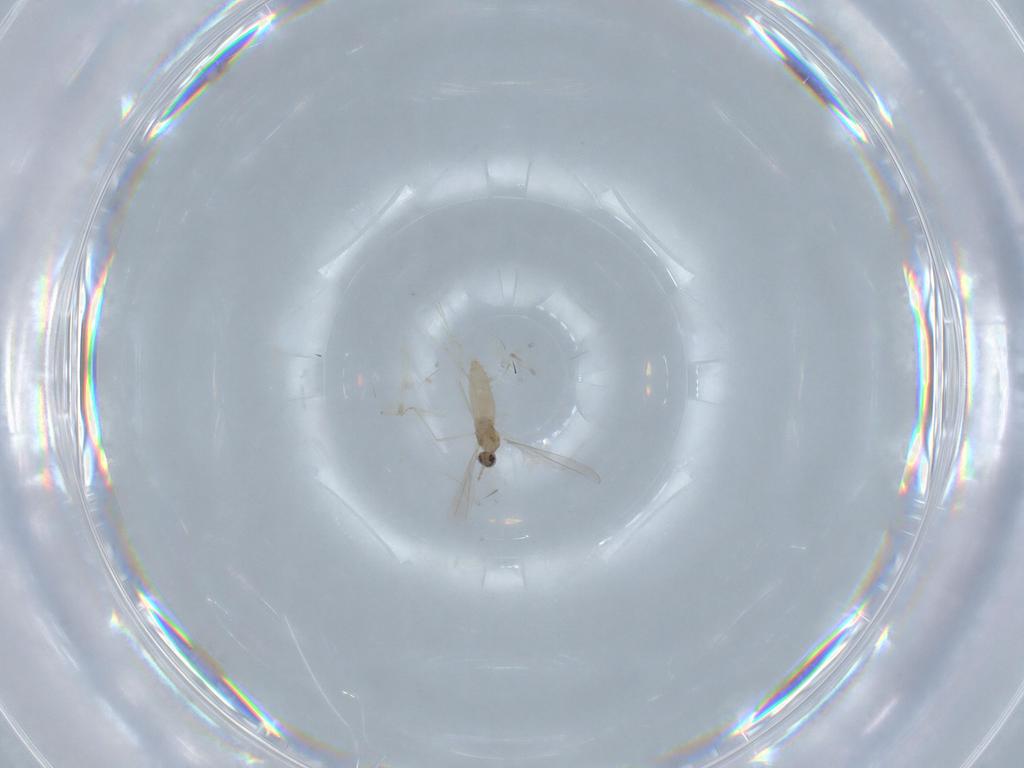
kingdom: Animalia
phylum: Arthropoda
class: Insecta
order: Diptera
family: Cecidomyiidae
